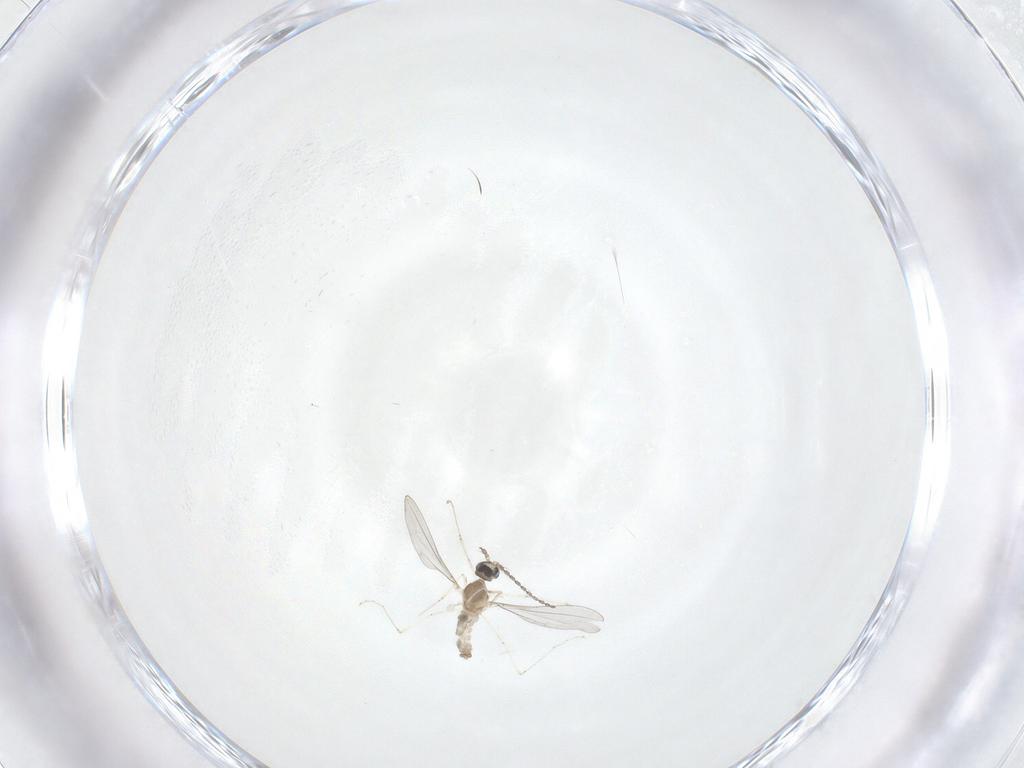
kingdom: Animalia
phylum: Arthropoda
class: Insecta
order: Diptera
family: Cecidomyiidae
